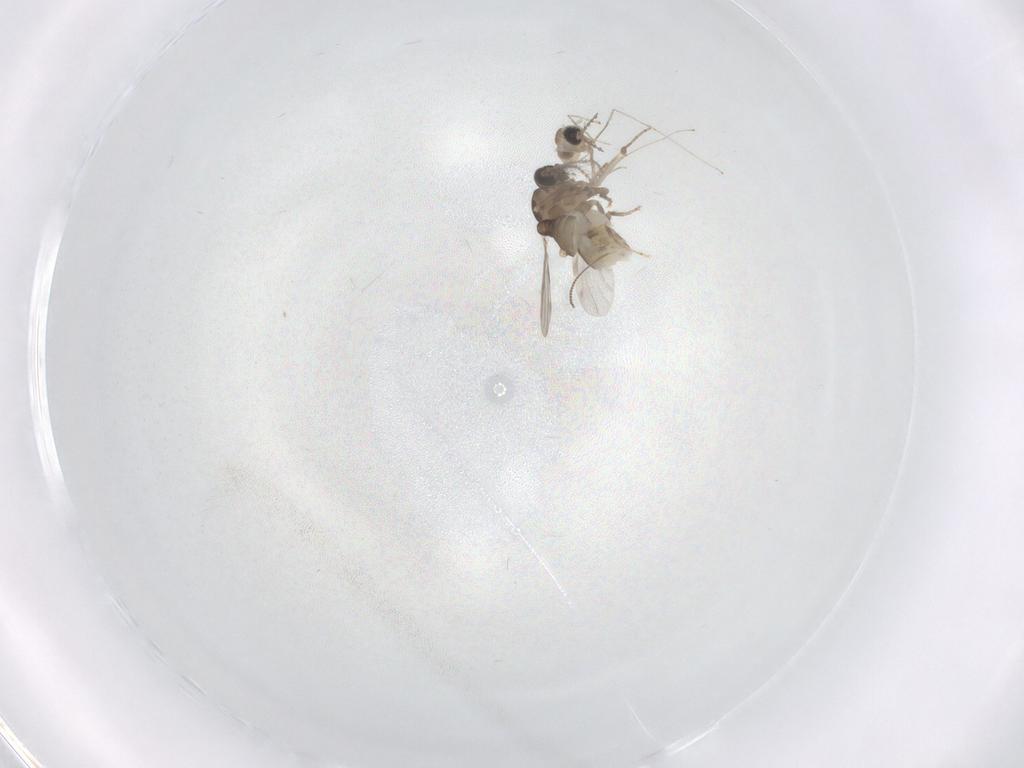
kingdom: Animalia
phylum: Arthropoda
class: Insecta
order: Diptera
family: Ceratopogonidae
